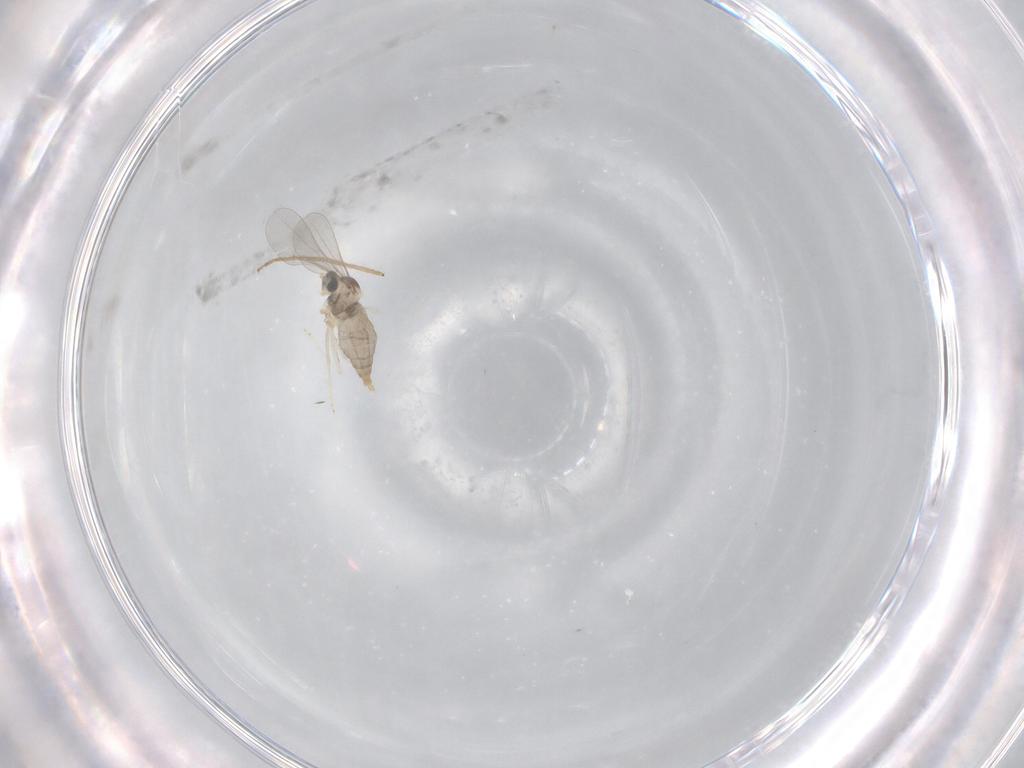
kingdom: Animalia
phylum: Arthropoda
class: Insecta
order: Diptera
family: Chironomidae
